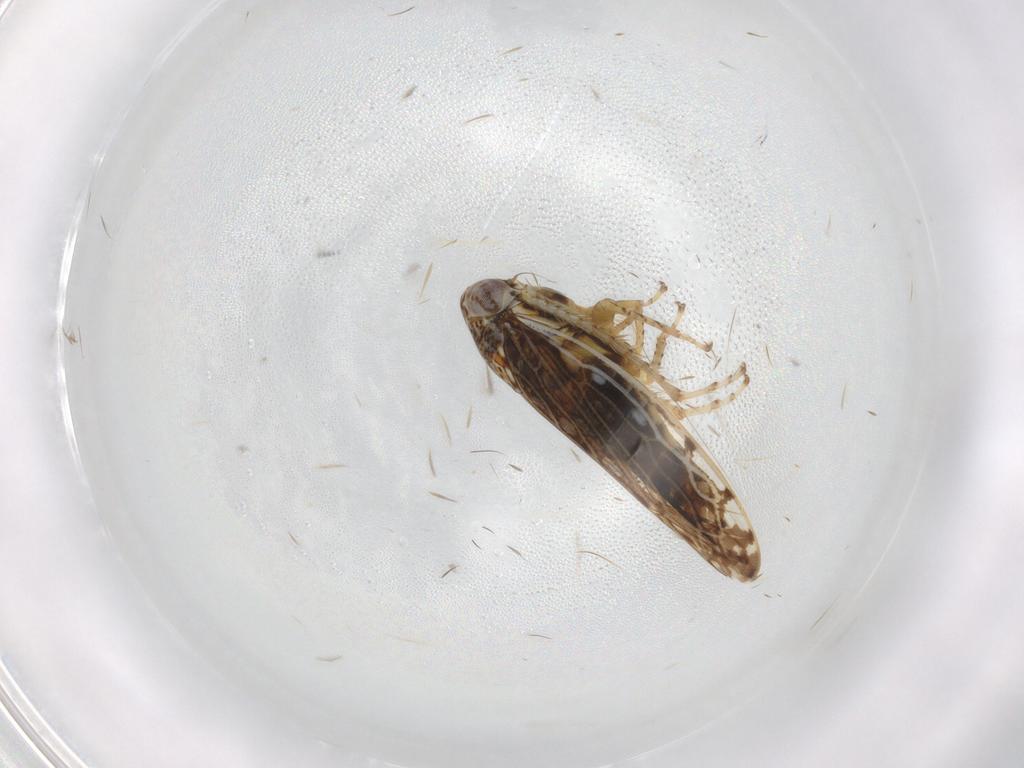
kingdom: Animalia
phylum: Arthropoda
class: Insecta
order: Hemiptera
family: Cicadellidae
